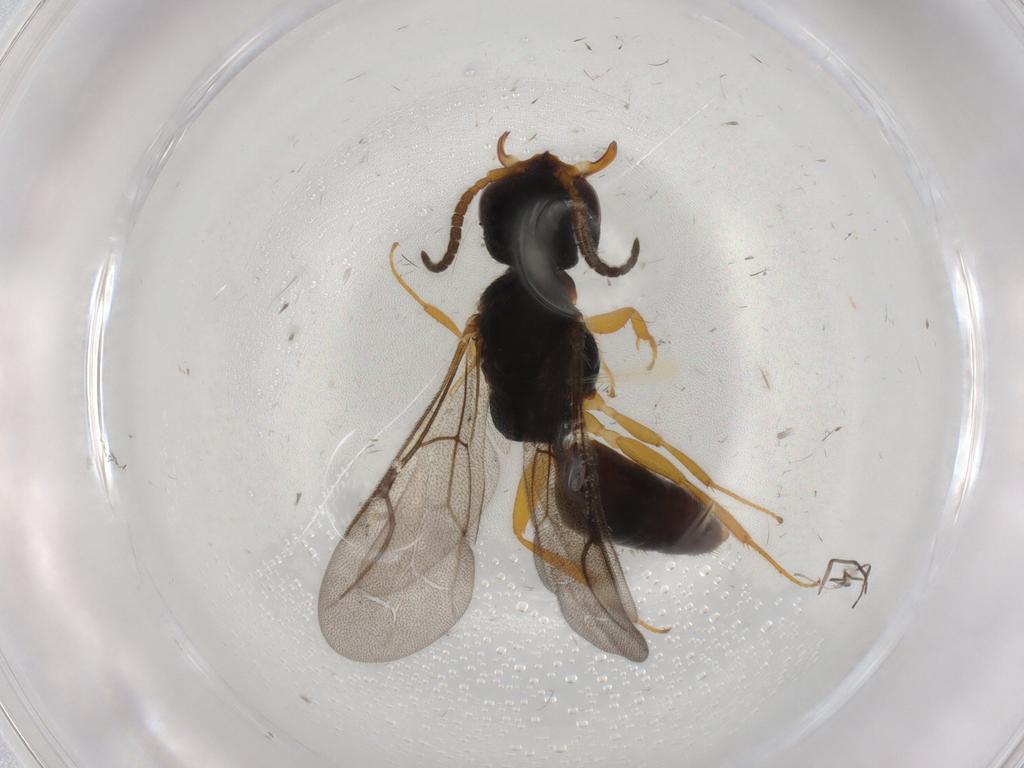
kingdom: Animalia
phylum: Arthropoda
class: Insecta
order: Hymenoptera
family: Bethylidae
